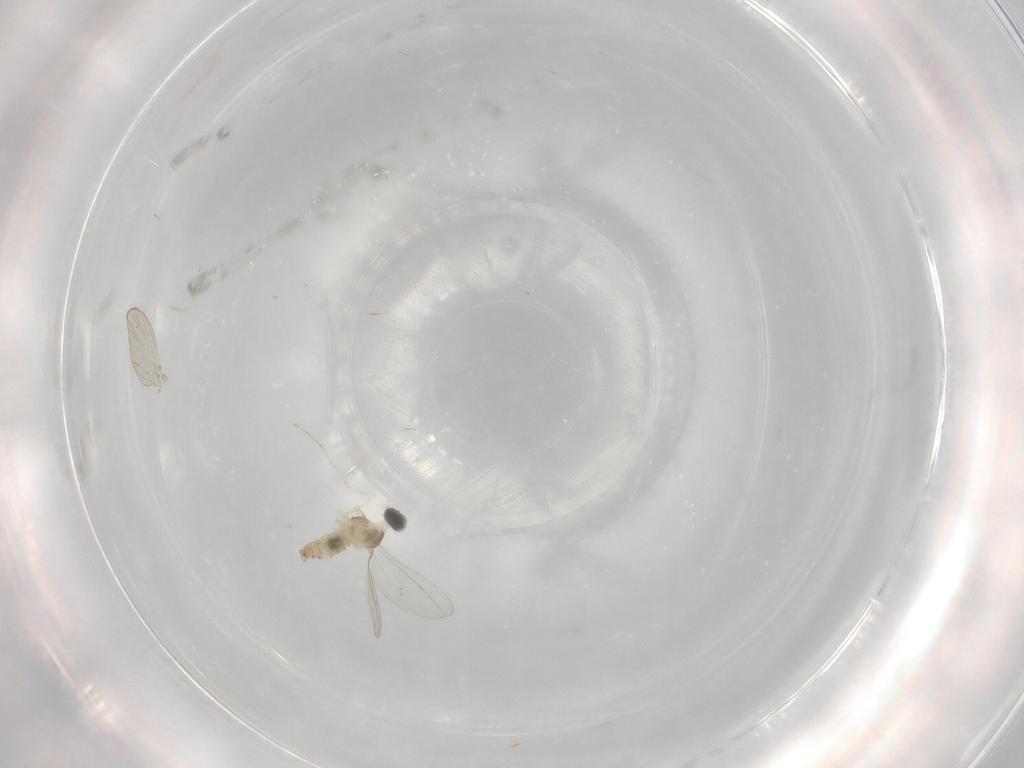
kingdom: Animalia
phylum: Arthropoda
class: Insecta
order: Diptera
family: Cecidomyiidae
